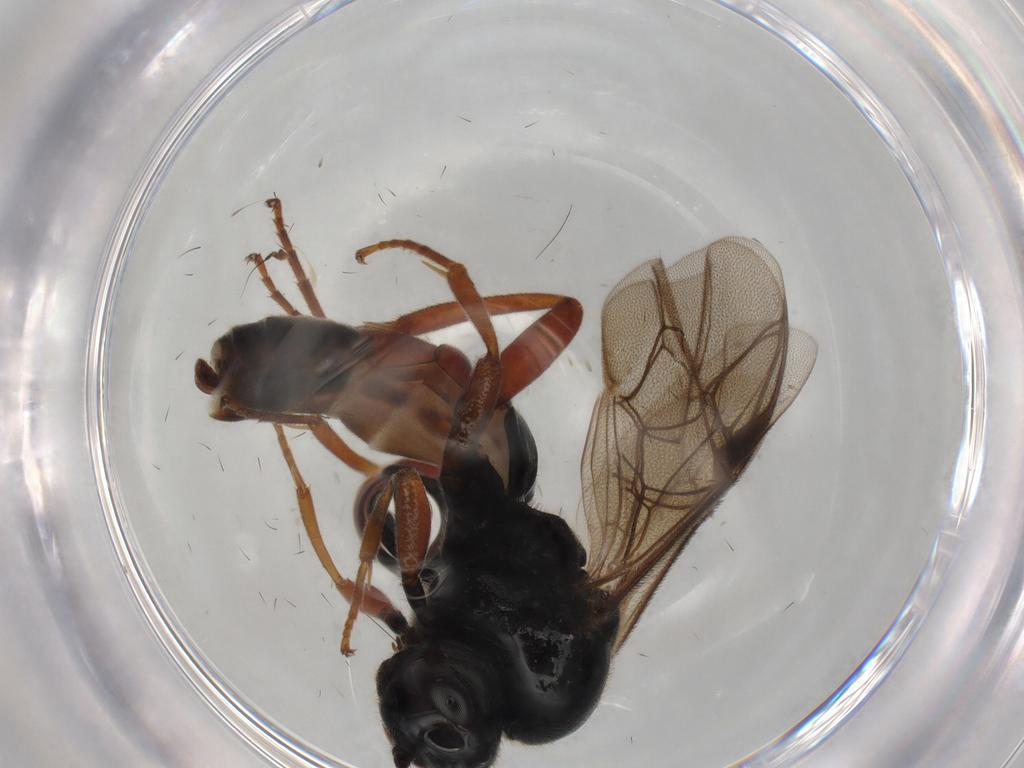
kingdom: Animalia
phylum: Arthropoda
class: Insecta
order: Hymenoptera
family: Ichneumonidae
